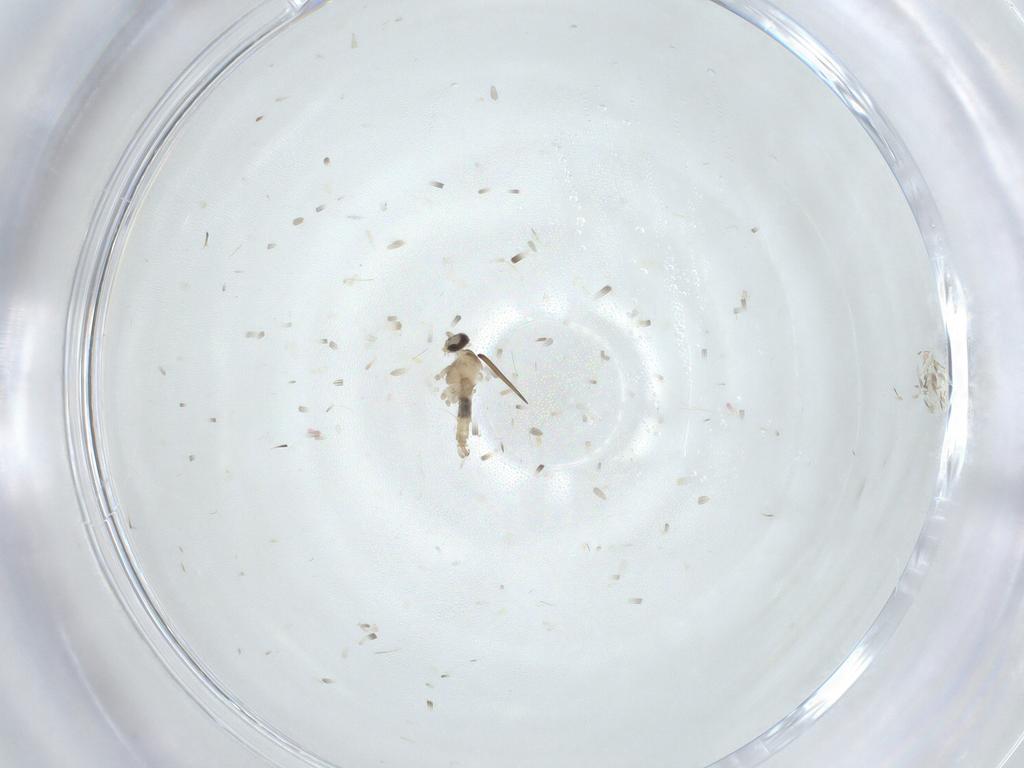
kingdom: Animalia
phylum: Arthropoda
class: Insecta
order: Diptera
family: Cecidomyiidae
